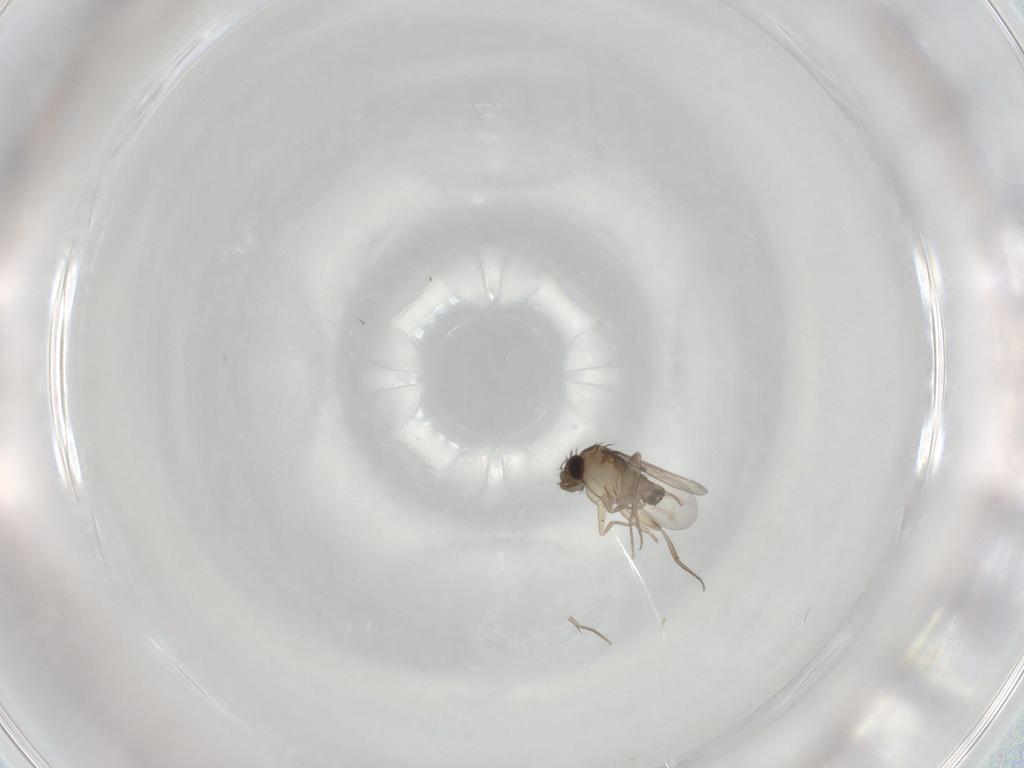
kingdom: Animalia
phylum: Arthropoda
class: Insecta
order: Diptera
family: Phoridae
